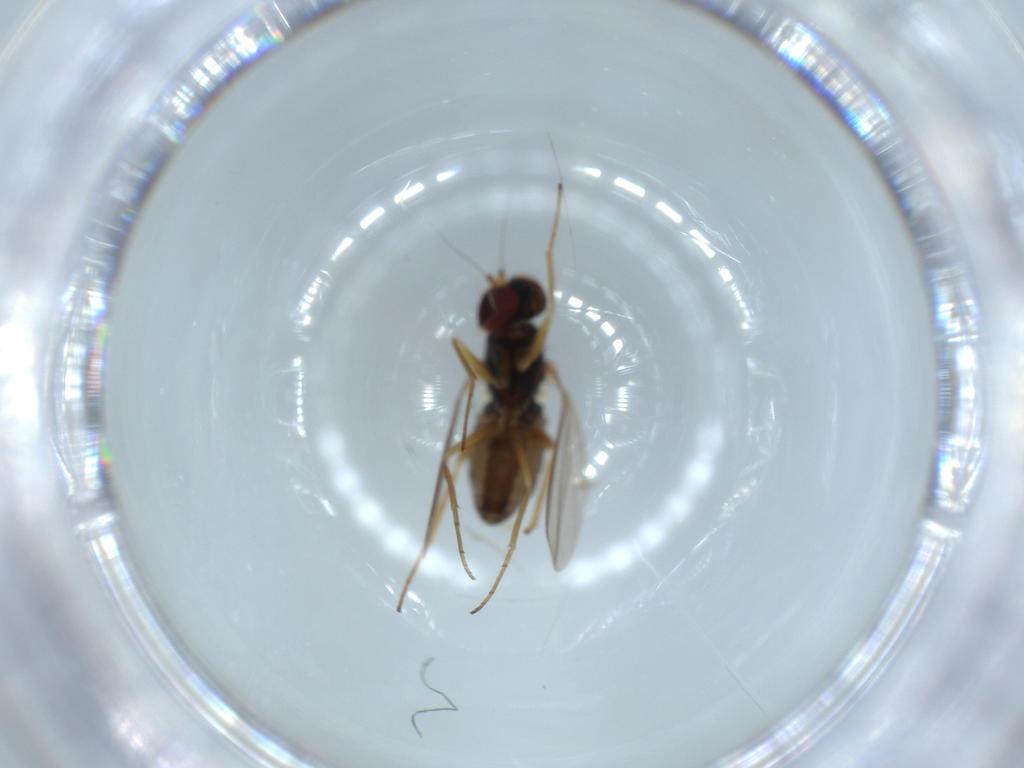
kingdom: Animalia
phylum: Arthropoda
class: Insecta
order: Diptera
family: Dolichopodidae
